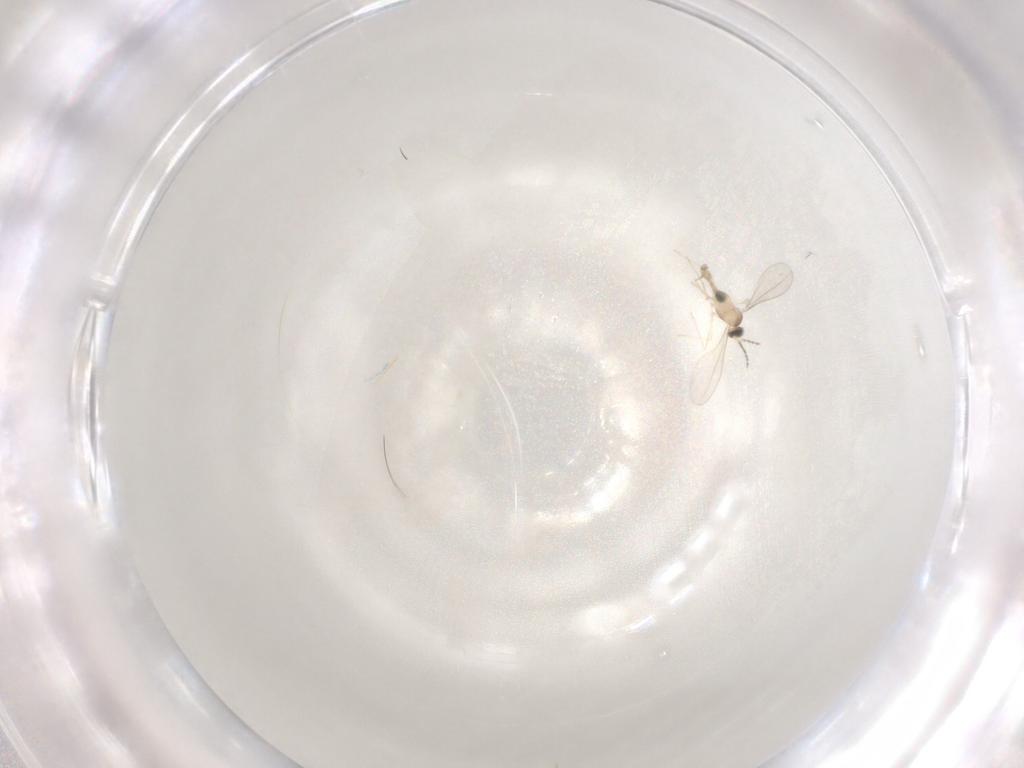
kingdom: Animalia
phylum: Arthropoda
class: Insecta
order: Diptera
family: Cecidomyiidae
